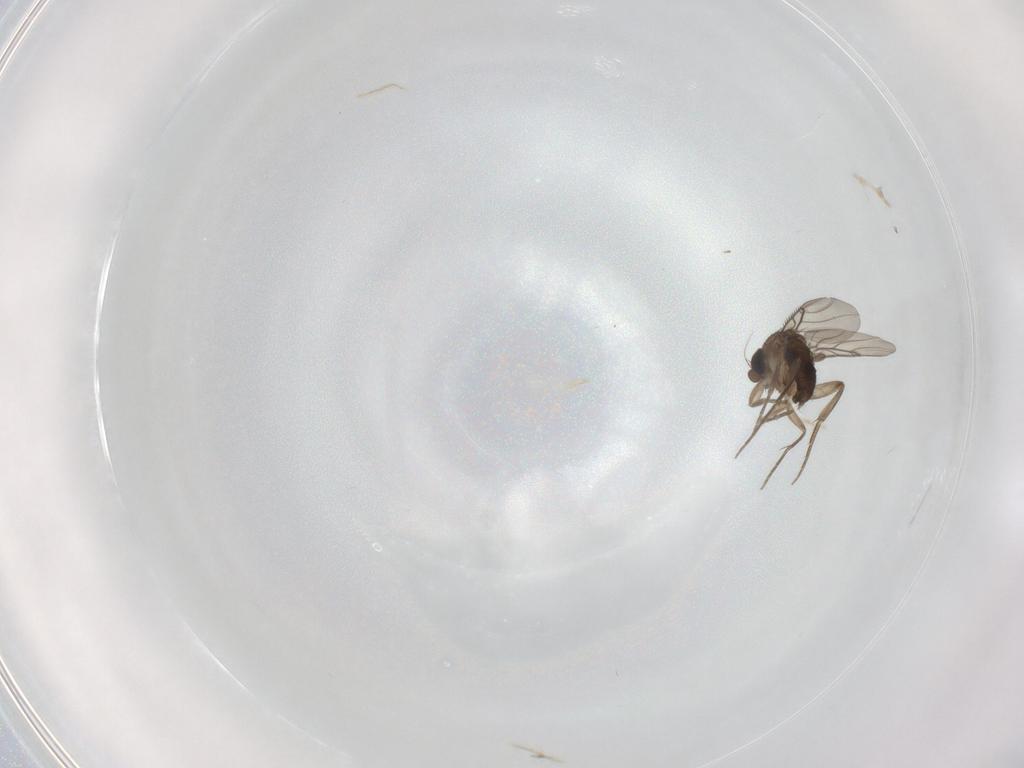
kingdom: Animalia
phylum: Arthropoda
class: Insecta
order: Diptera
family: Phoridae
